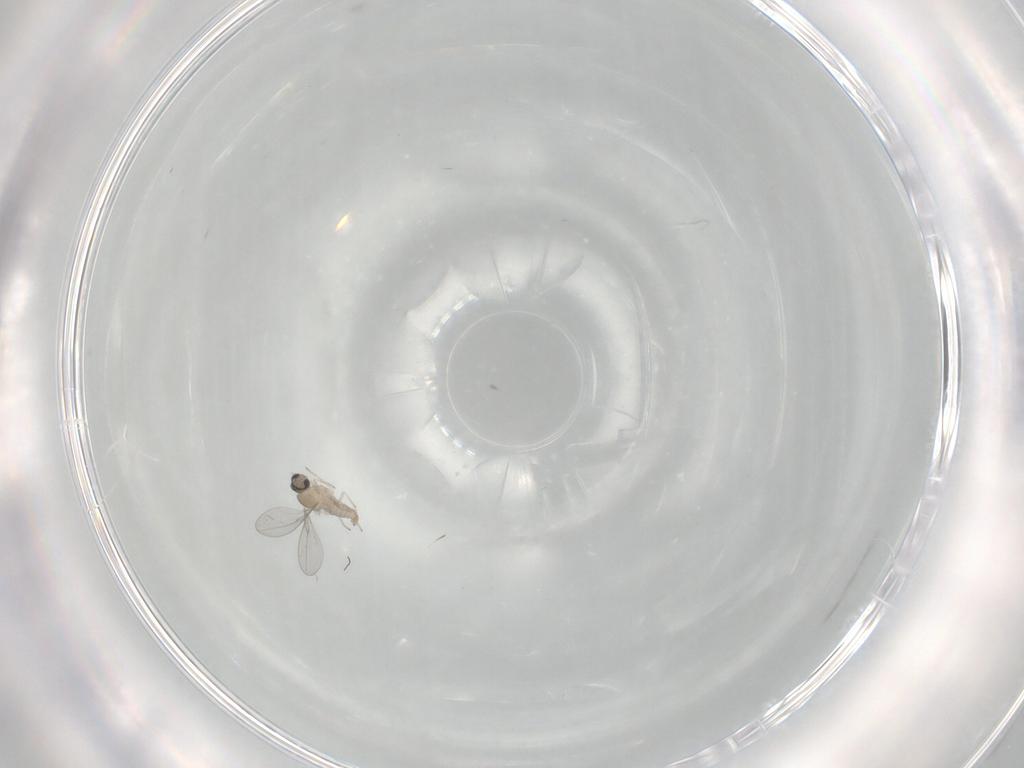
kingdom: Animalia
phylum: Arthropoda
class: Insecta
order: Diptera
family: Cecidomyiidae
